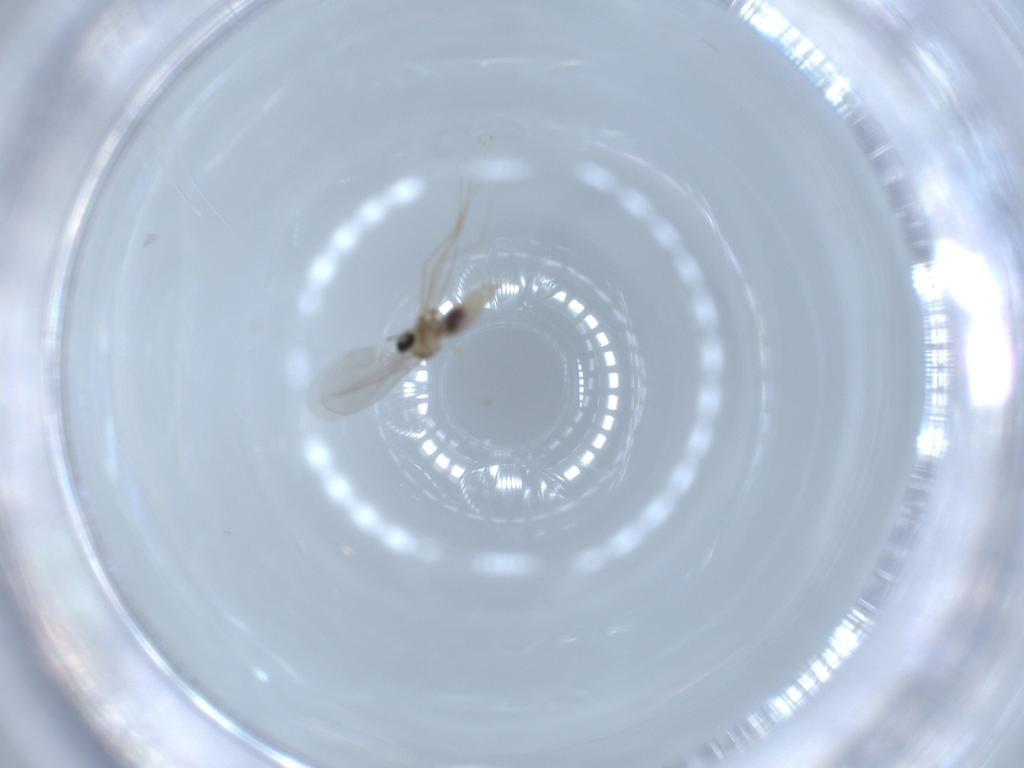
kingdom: Animalia
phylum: Arthropoda
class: Insecta
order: Diptera
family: Cecidomyiidae
